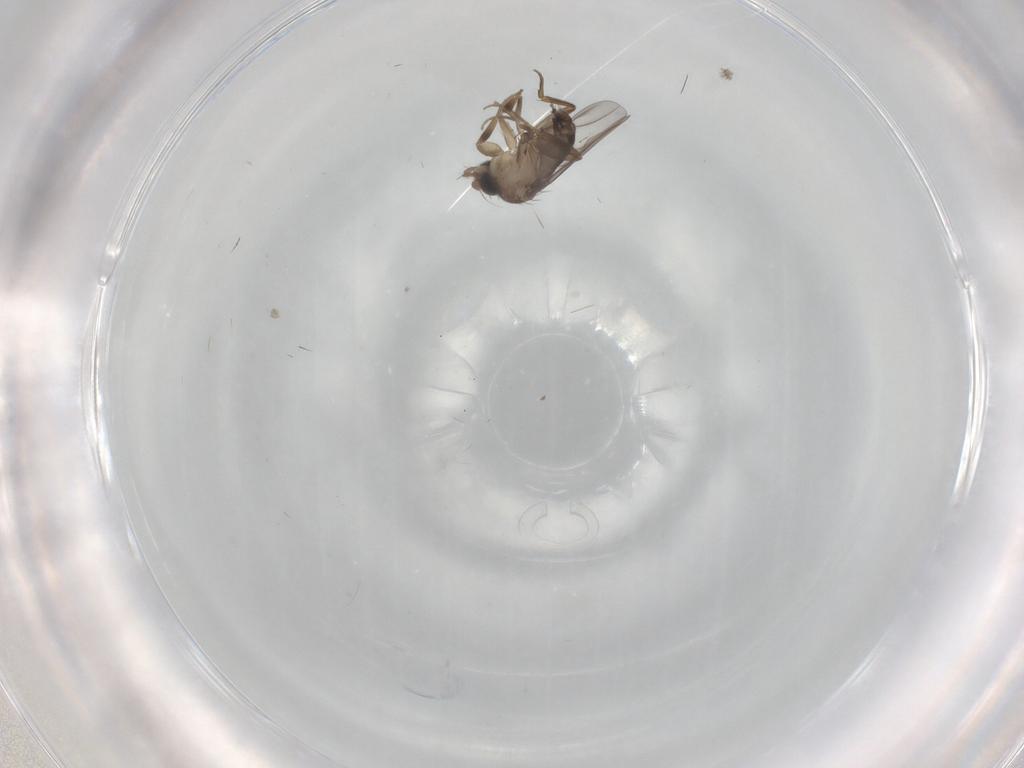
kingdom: Animalia
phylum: Arthropoda
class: Insecta
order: Diptera
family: Phoridae
